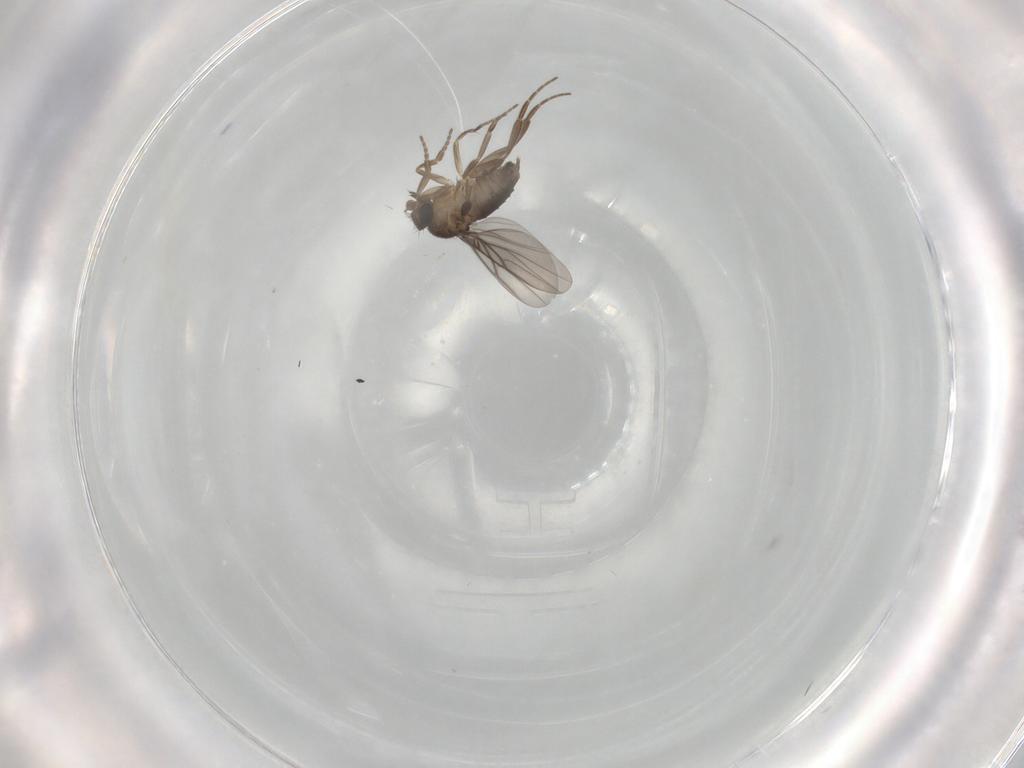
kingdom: Animalia
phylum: Arthropoda
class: Insecta
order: Diptera
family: Phoridae
